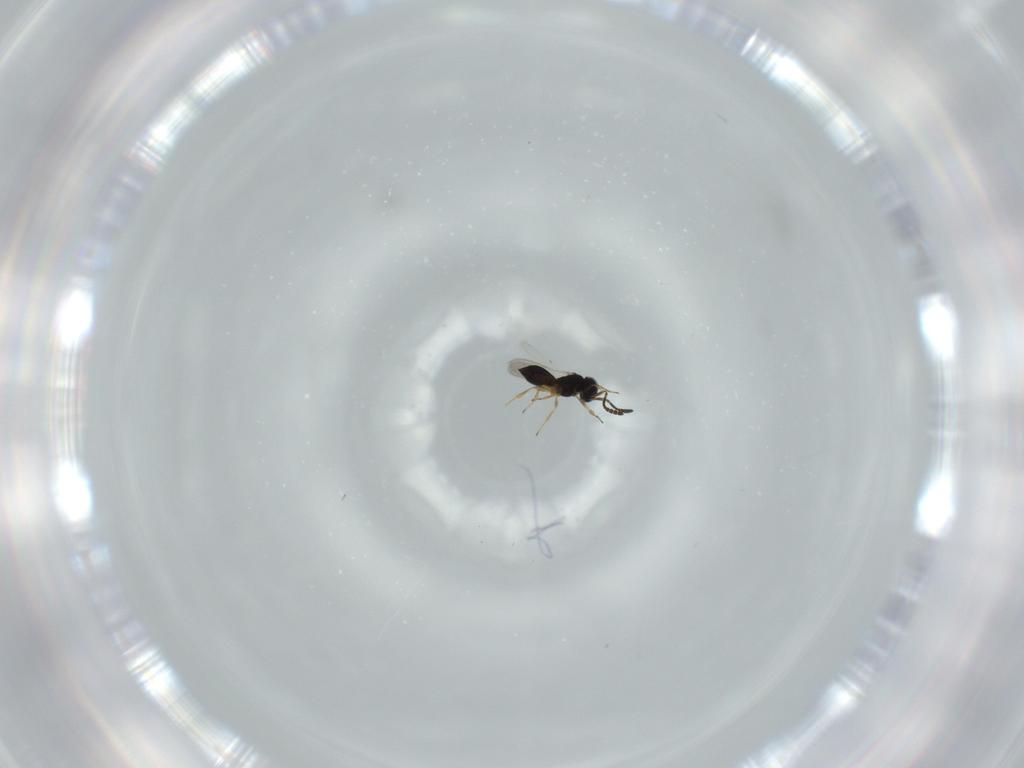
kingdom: Animalia
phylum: Arthropoda
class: Insecta
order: Hymenoptera
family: Scelionidae
